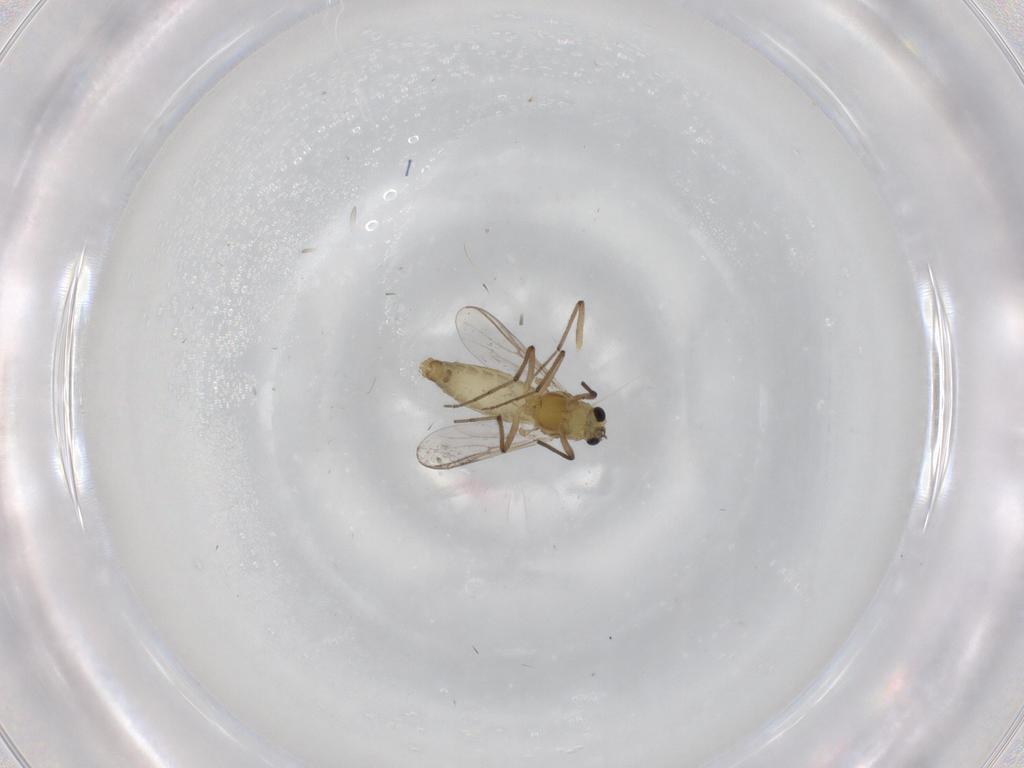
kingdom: Animalia
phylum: Arthropoda
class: Insecta
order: Diptera
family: Chironomidae
